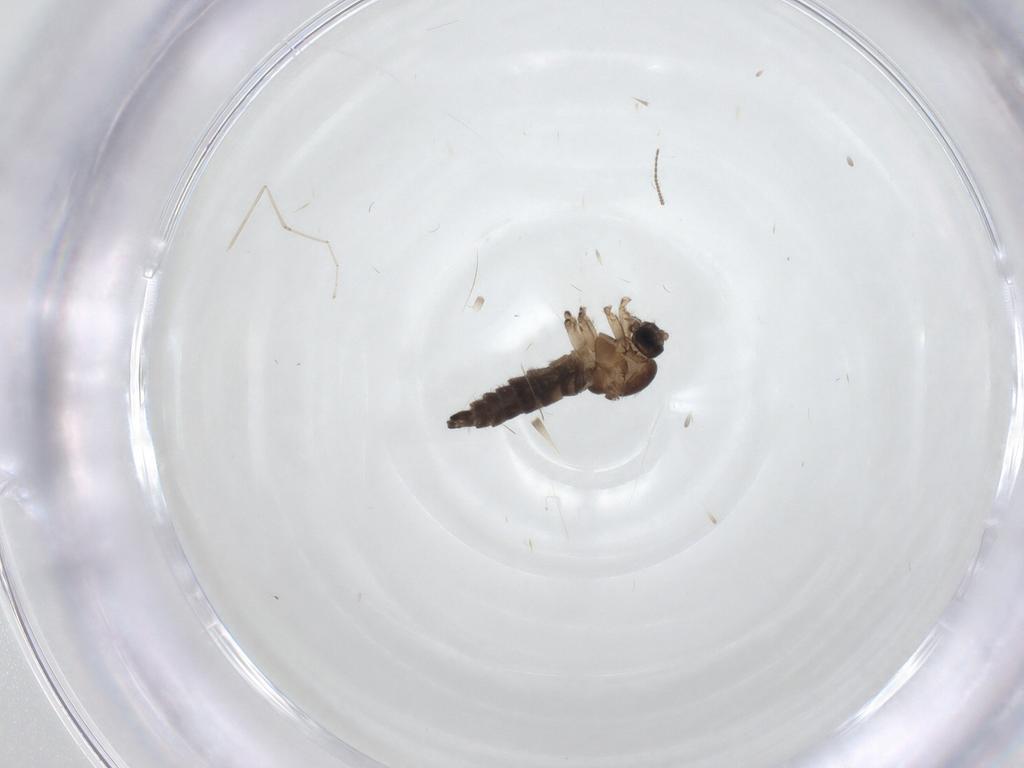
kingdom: Animalia
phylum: Arthropoda
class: Insecta
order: Diptera
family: Sciaridae
